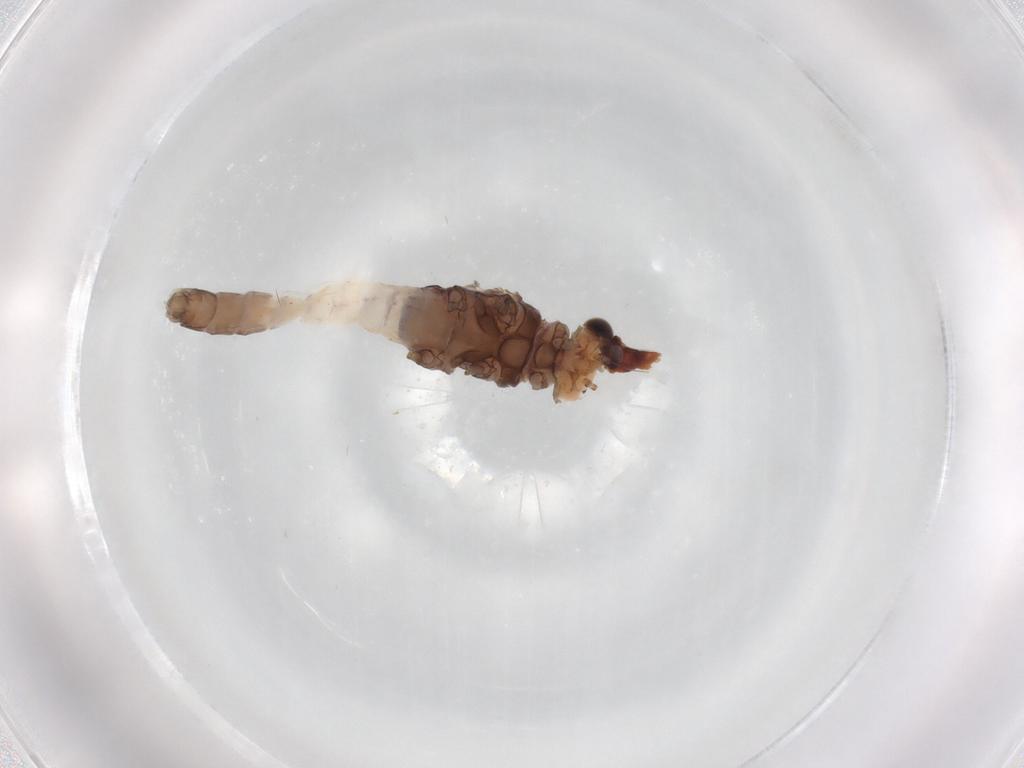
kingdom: Animalia
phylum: Arthropoda
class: Insecta
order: Ephemeroptera
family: Baetidae
